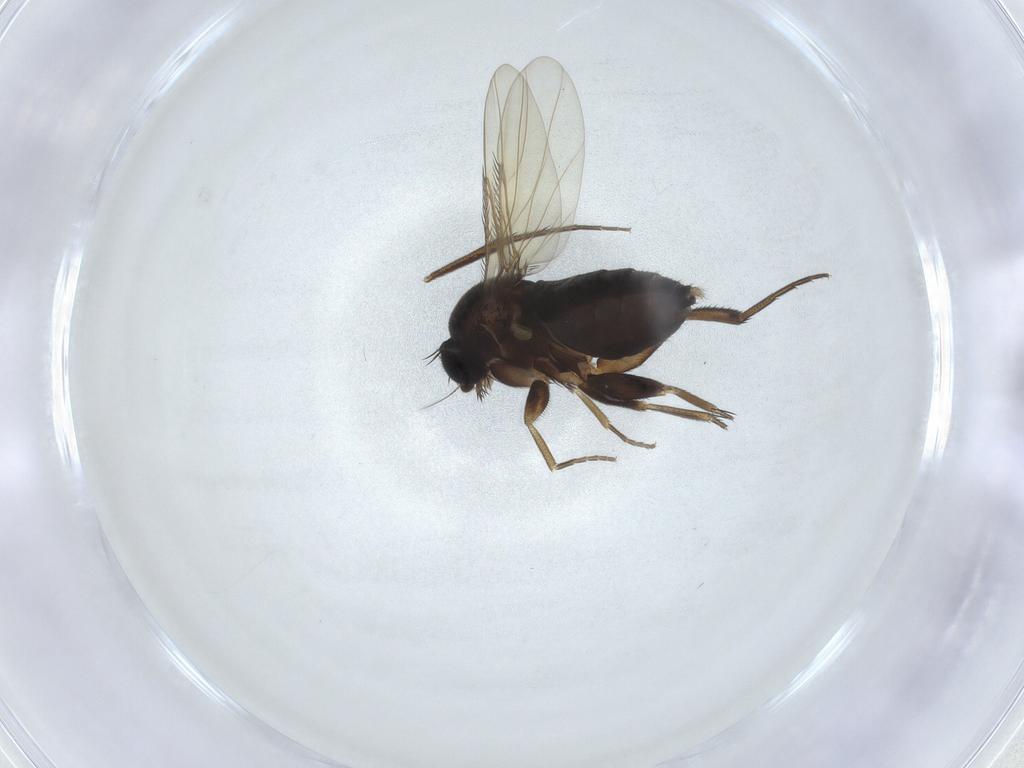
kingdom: Animalia
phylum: Arthropoda
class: Insecta
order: Diptera
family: Phoridae
